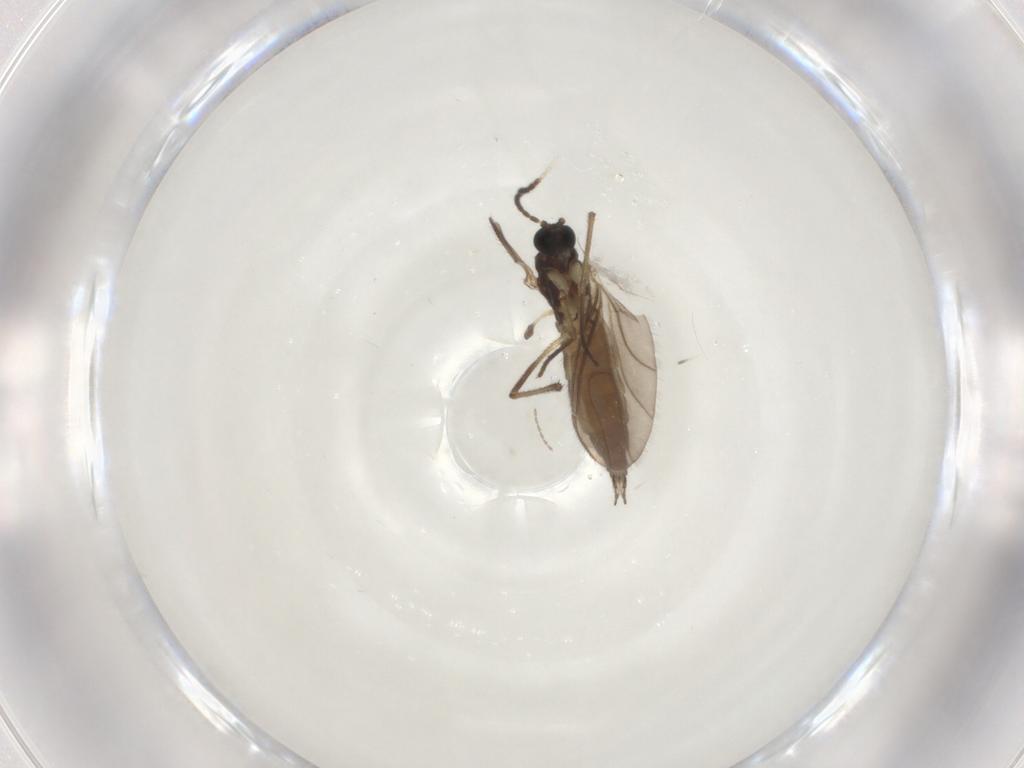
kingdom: Animalia
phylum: Arthropoda
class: Insecta
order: Diptera
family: Sciaridae
